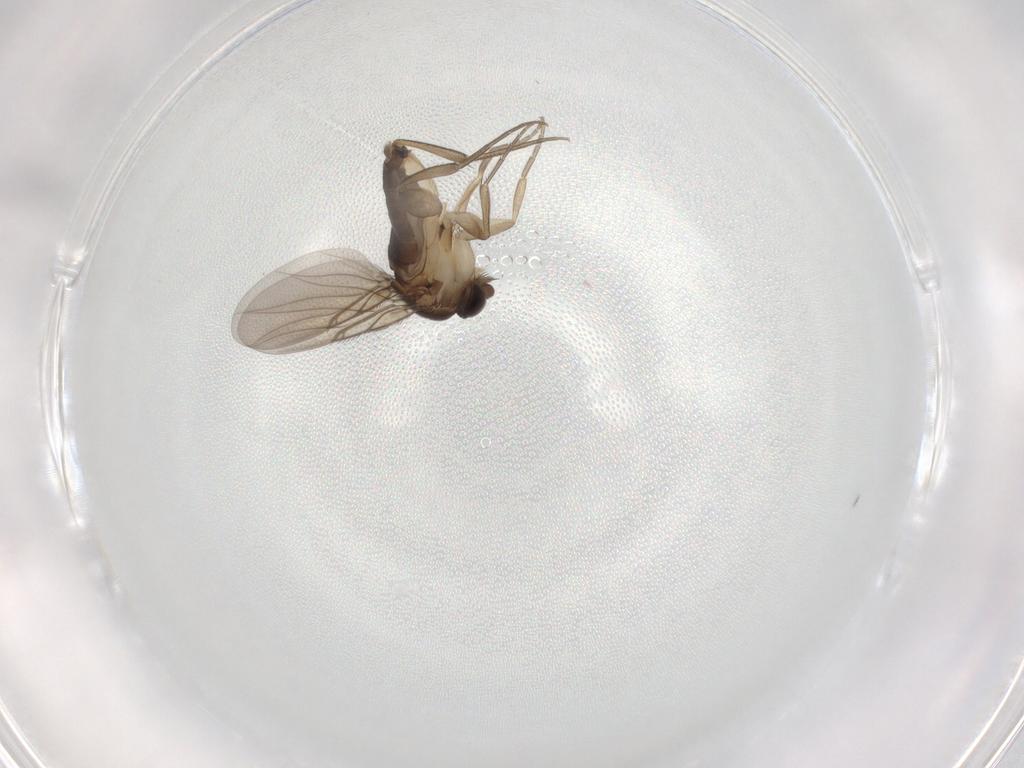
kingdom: Animalia
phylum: Arthropoda
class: Insecta
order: Diptera
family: Phoridae
